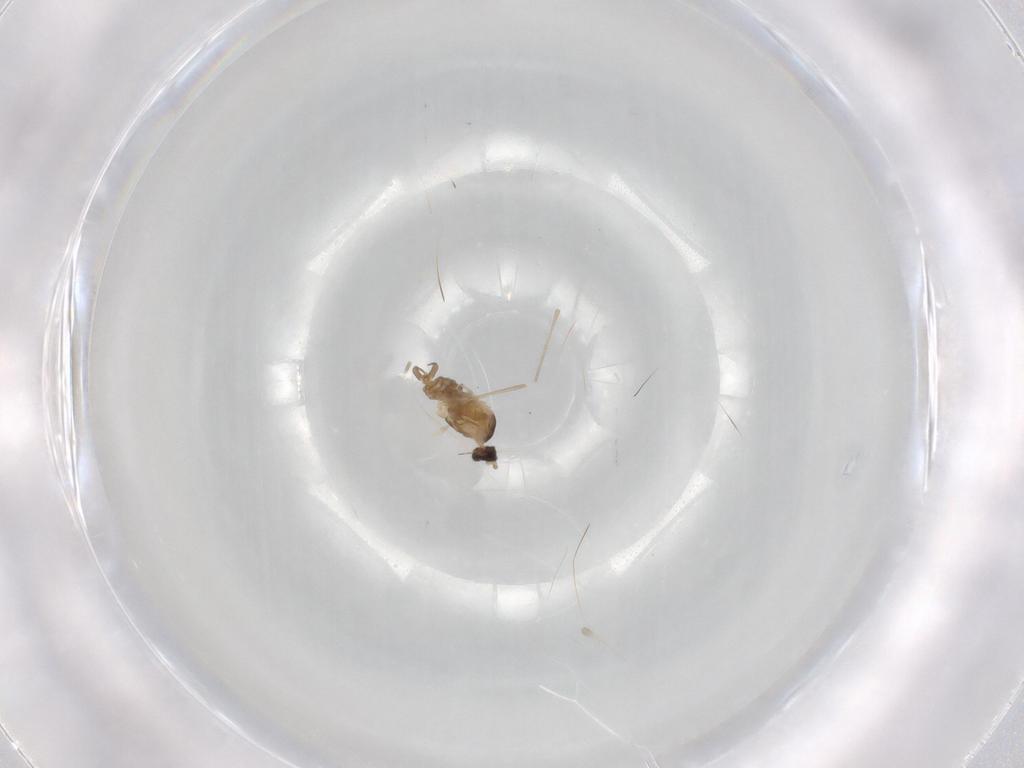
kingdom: Animalia
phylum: Arthropoda
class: Insecta
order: Diptera
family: Cecidomyiidae
